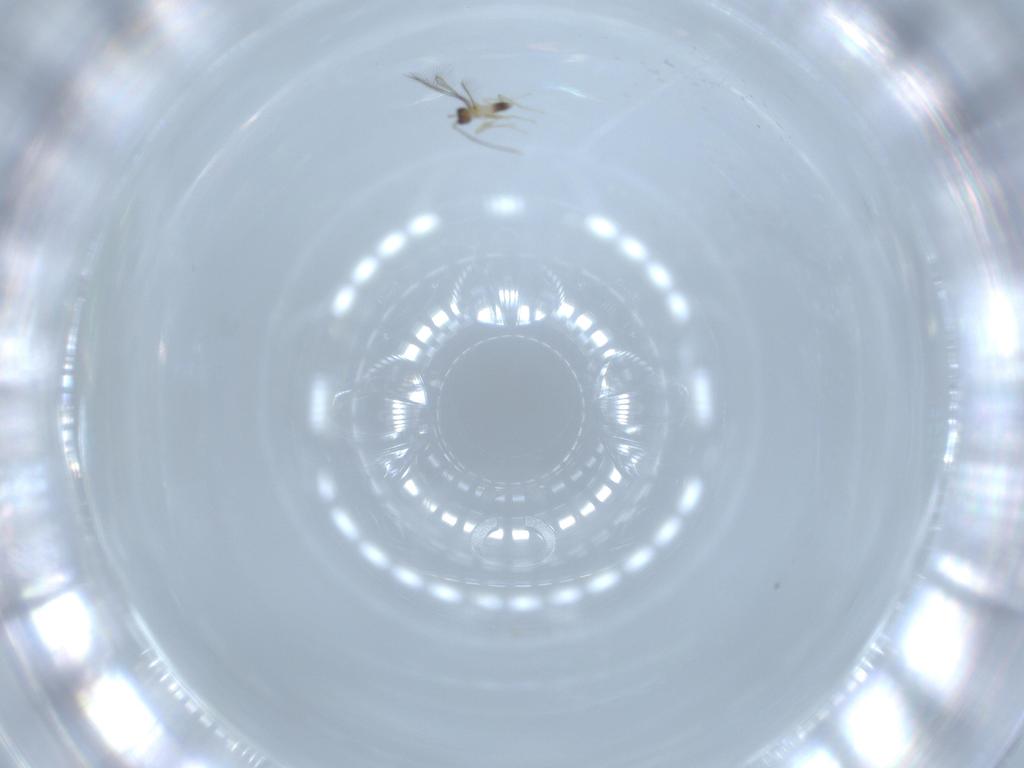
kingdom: Animalia
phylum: Arthropoda
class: Insecta
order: Hymenoptera
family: Mymaridae
